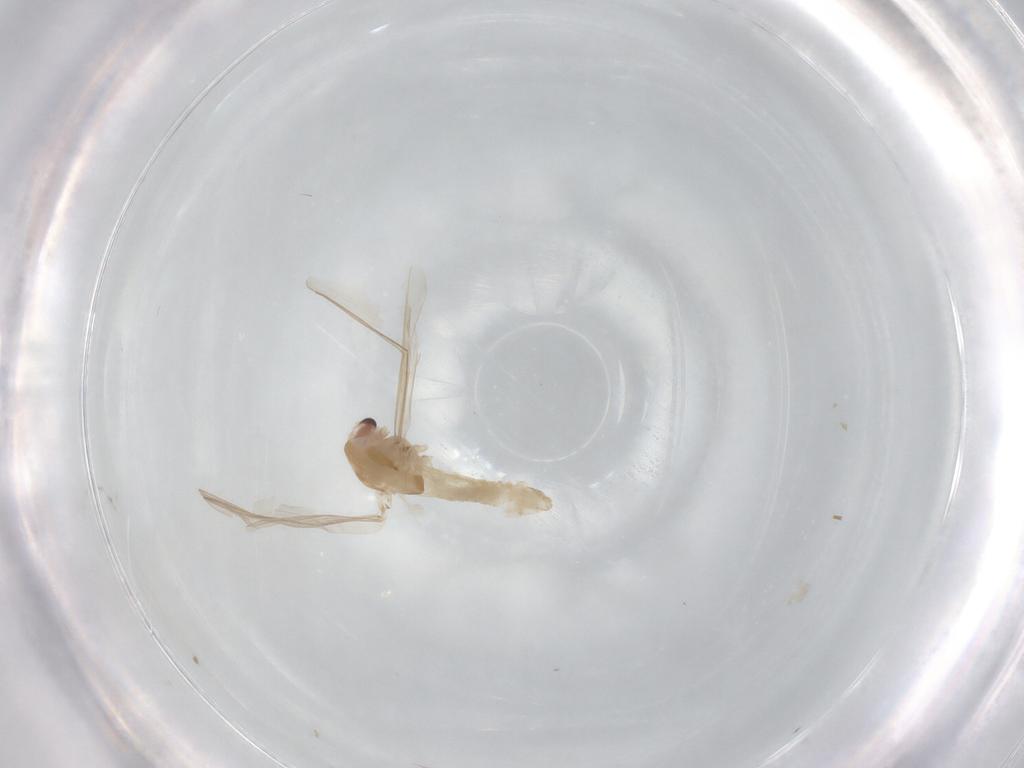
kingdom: Animalia
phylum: Arthropoda
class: Insecta
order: Diptera
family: Chironomidae
